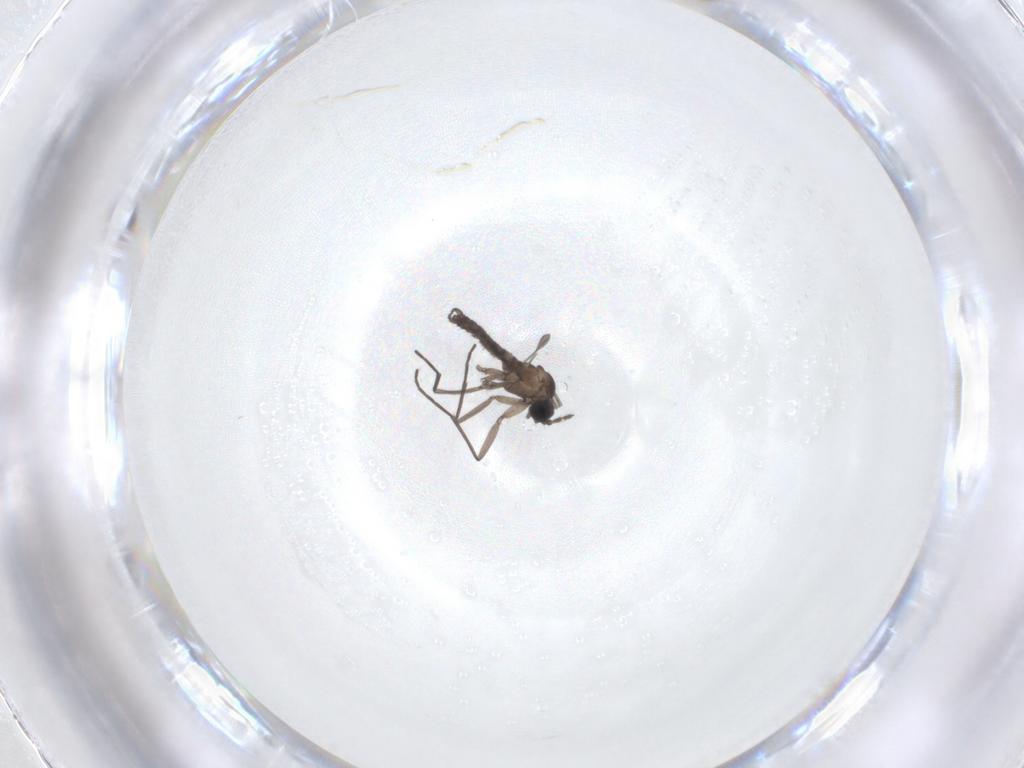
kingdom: Animalia
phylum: Arthropoda
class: Insecta
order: Diptera
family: Sciaridae
